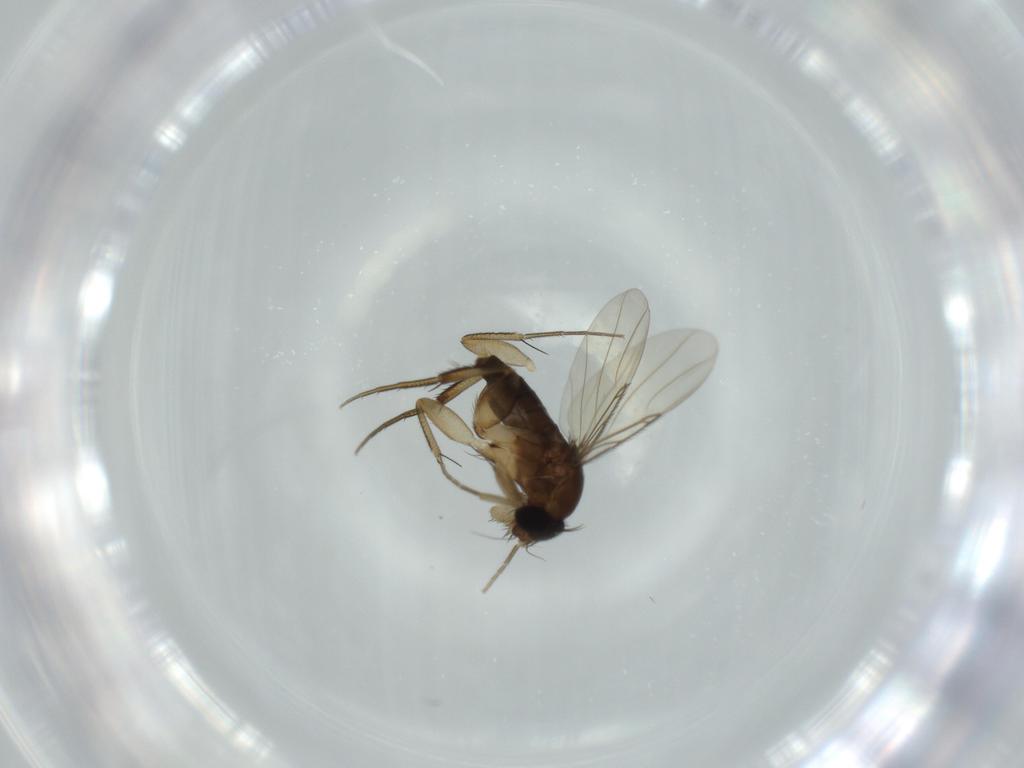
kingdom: Animalia
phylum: Arthropoda
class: Insecta
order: Diptera
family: Phoridae
